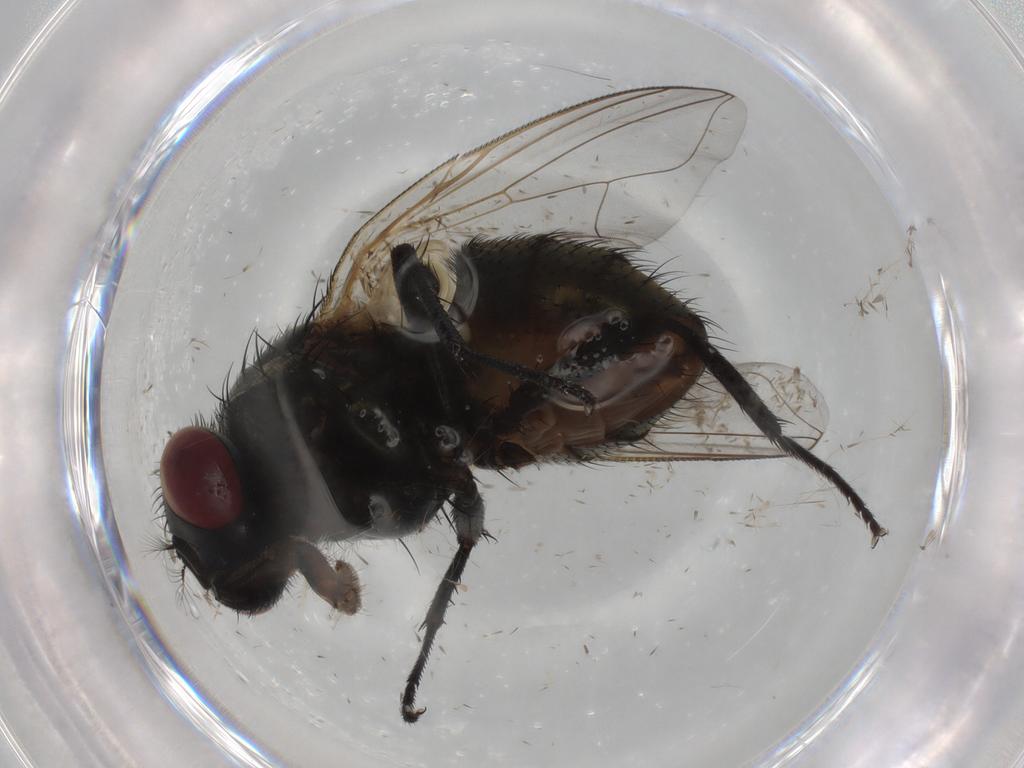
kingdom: Animalia
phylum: Arthropoda
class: Insecta
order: Diptera
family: Muscidae
